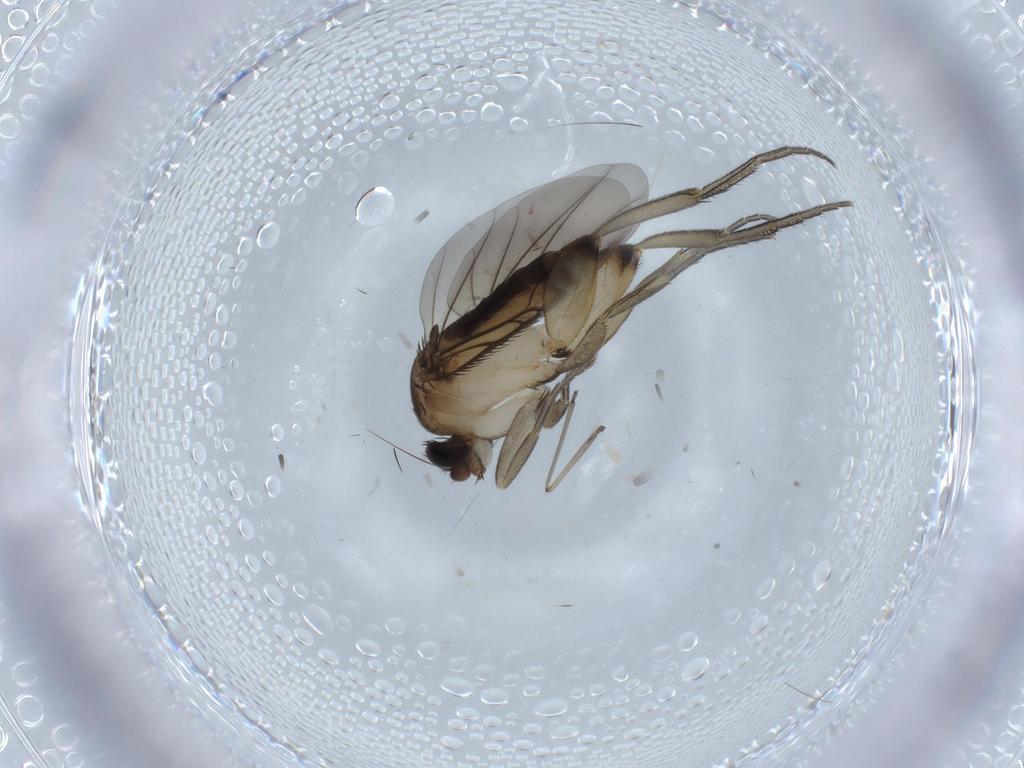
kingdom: Animalia
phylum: Arthropoda
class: Insecta
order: Diptera
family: Phoridae
